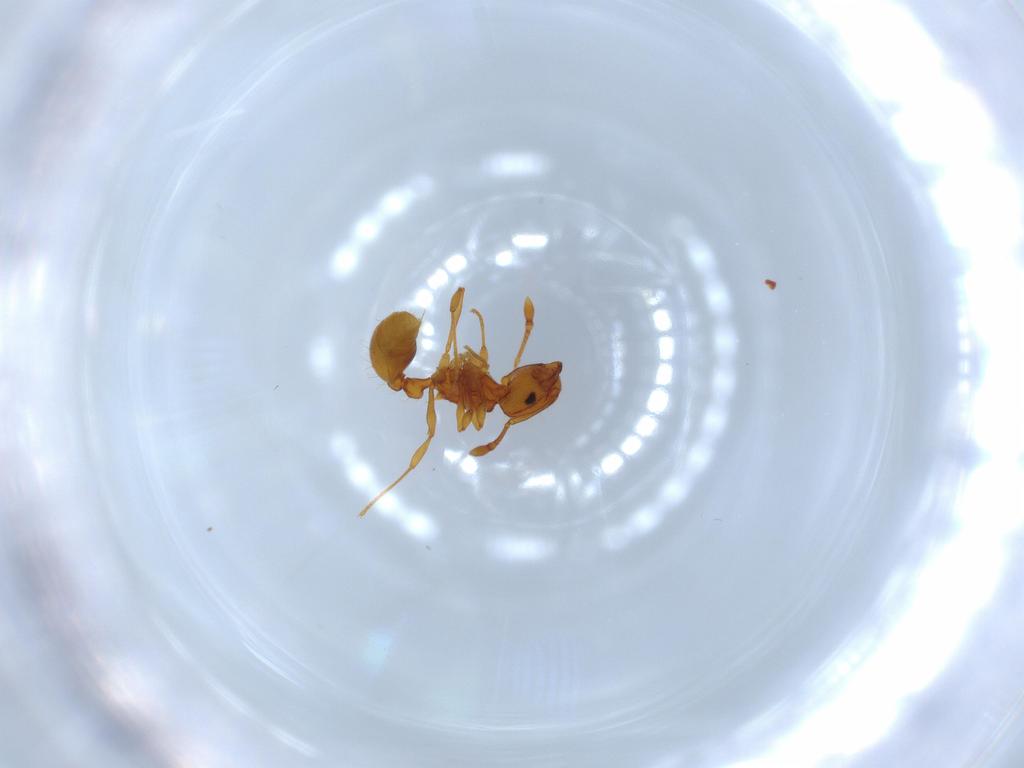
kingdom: Animalia
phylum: Arthropoda
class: Insecta
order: Hymenoptera
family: Formicidae
